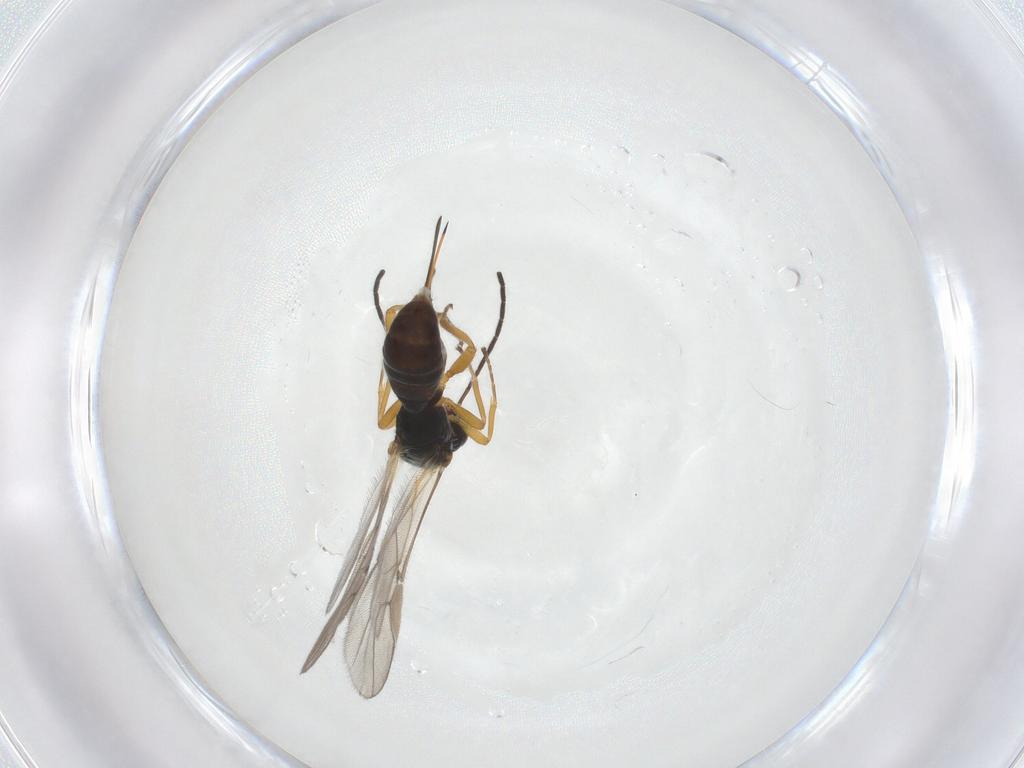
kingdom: Animalia
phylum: Arthropoda
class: Insecta
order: Hymenoptera
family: Braconidae
